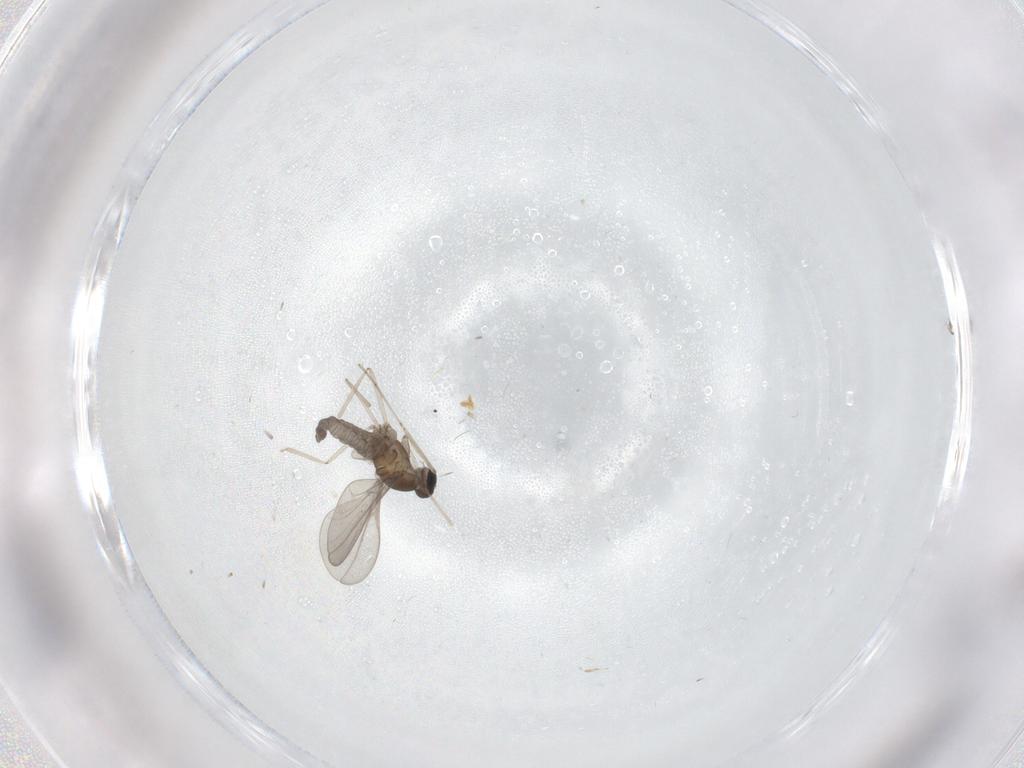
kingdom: Animalia
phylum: Arthropoda
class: Insecta
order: Diptera
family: Cecidomyiidae
